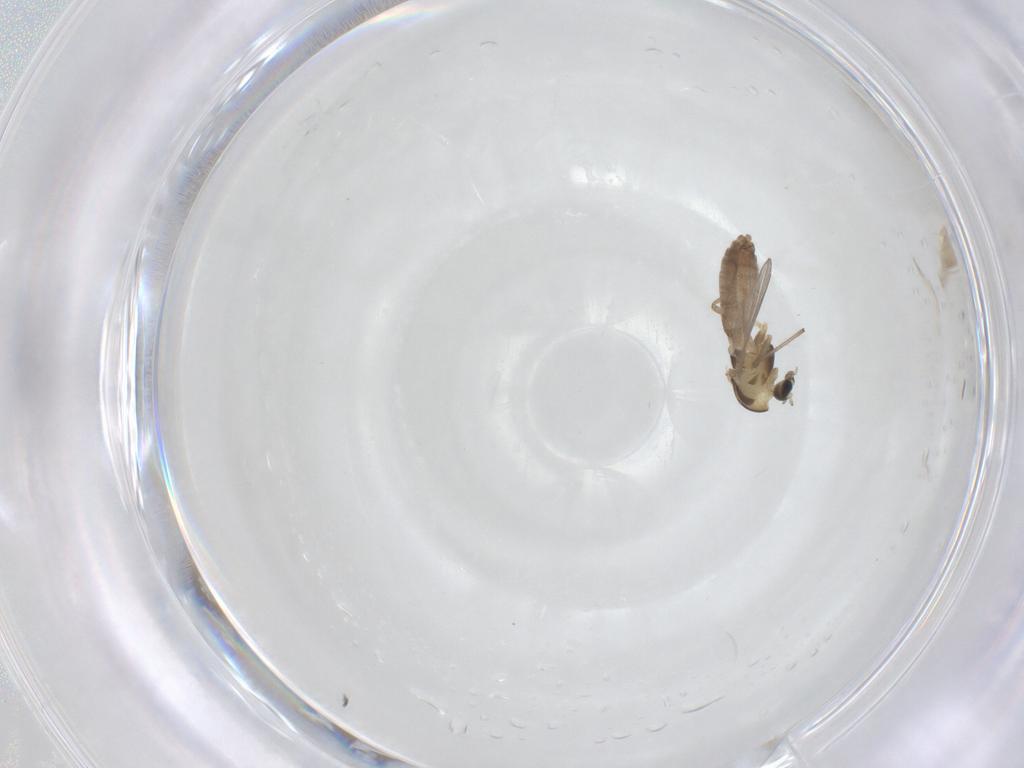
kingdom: Animalia
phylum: Arthropoda
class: Insecta
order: Diptera
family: Chironomidae
